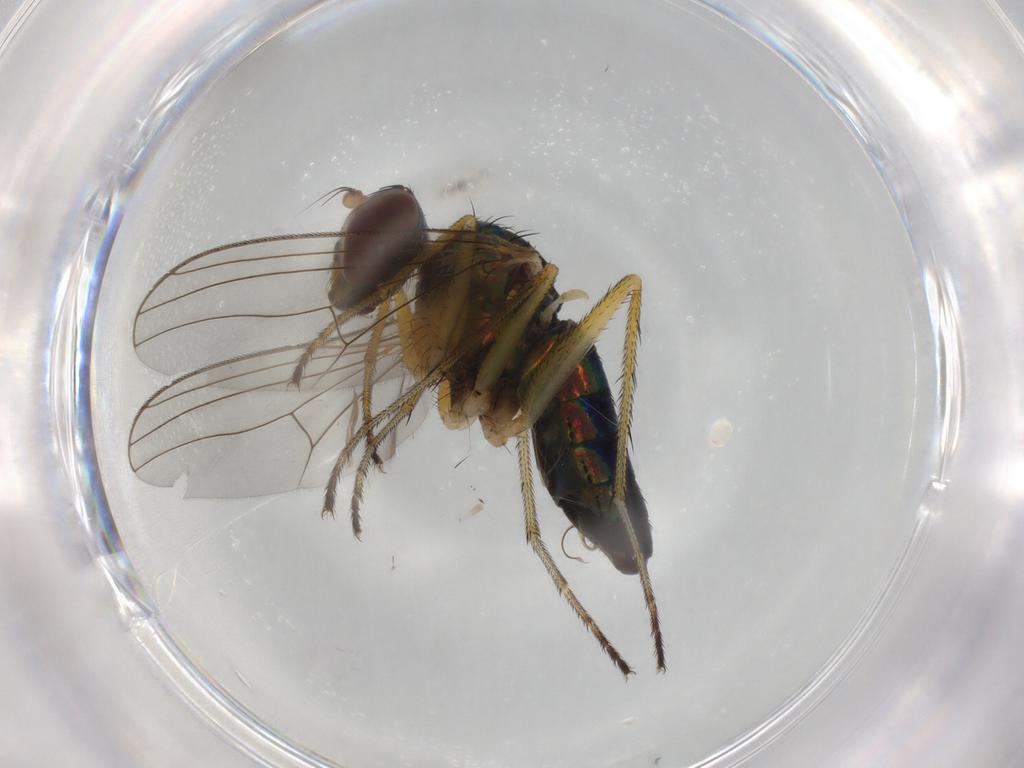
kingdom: Animalia
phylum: Arthropoda
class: Insecta
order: Diptera
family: Dolichopodidae
